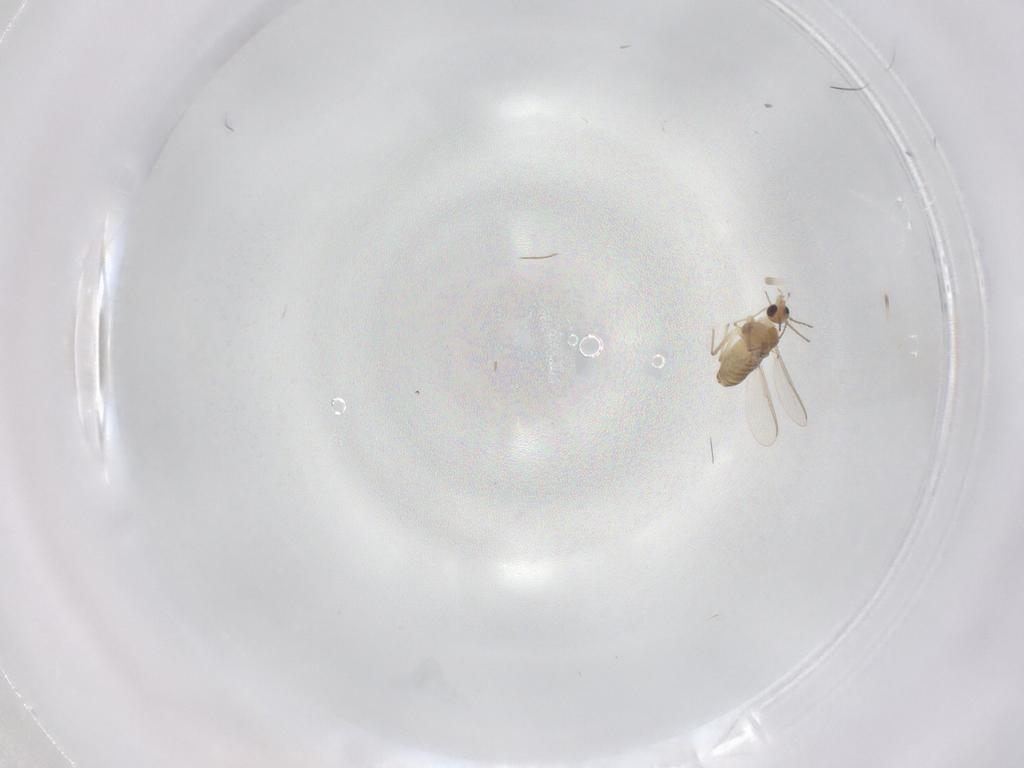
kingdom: Animalia
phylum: Arthropoda
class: Insecta
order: Diptera
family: Chironomidae
